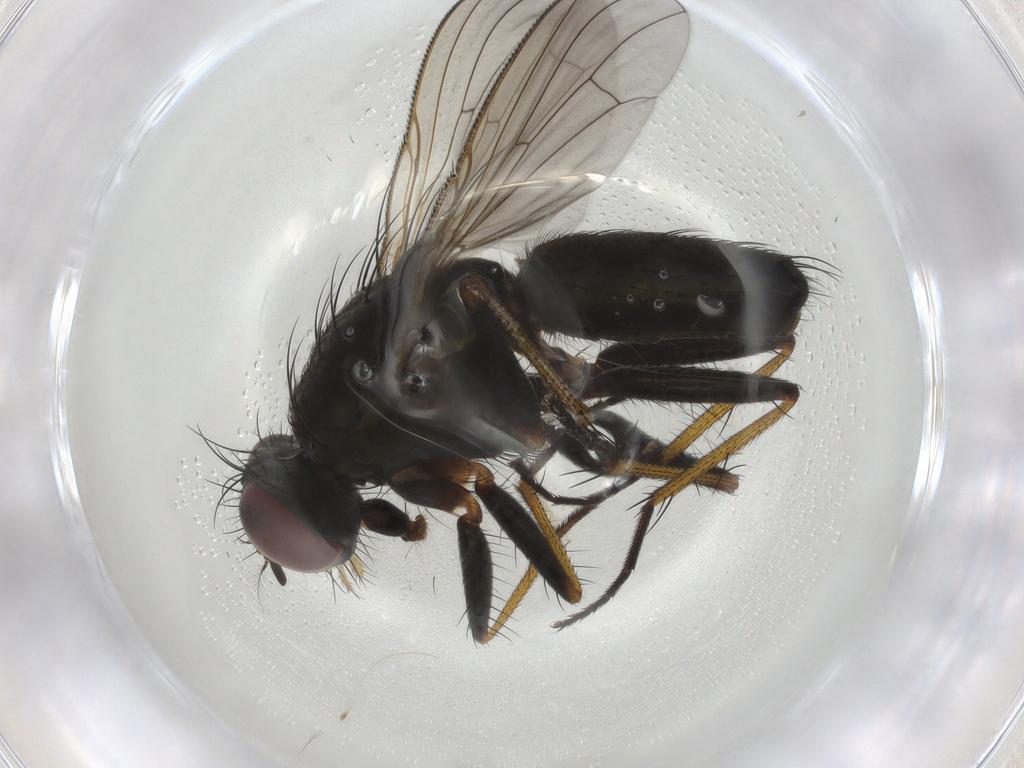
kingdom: Animalia
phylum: Arthropoda
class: Insecta
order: Diptera
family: Muscidae
